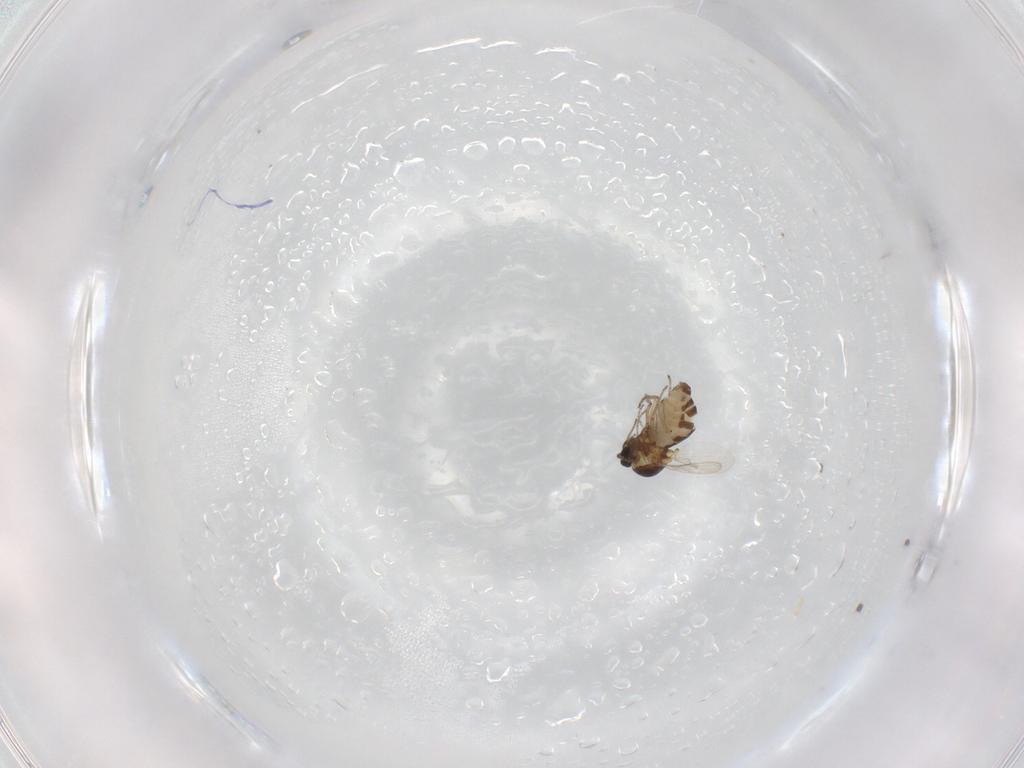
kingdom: Animalia
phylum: Arthropoda
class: Insecta
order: Diptera
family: Ceratopogonidae
